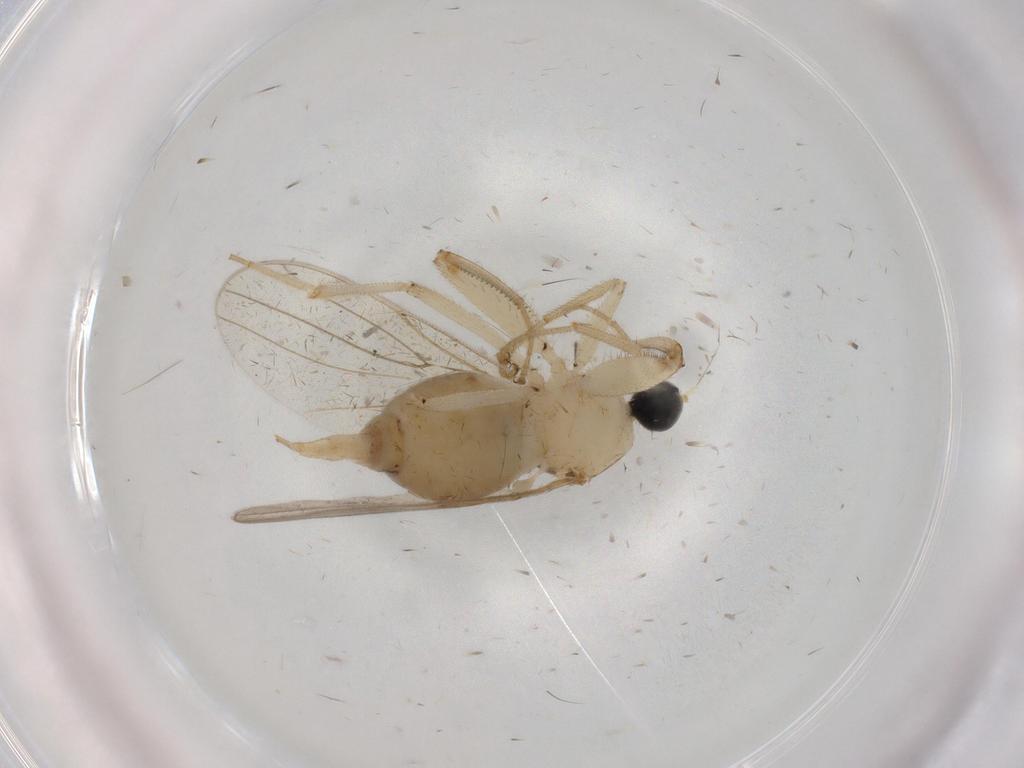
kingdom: Animalia
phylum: Arthropoda
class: Insecta
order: Diptera
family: Hybotidae
